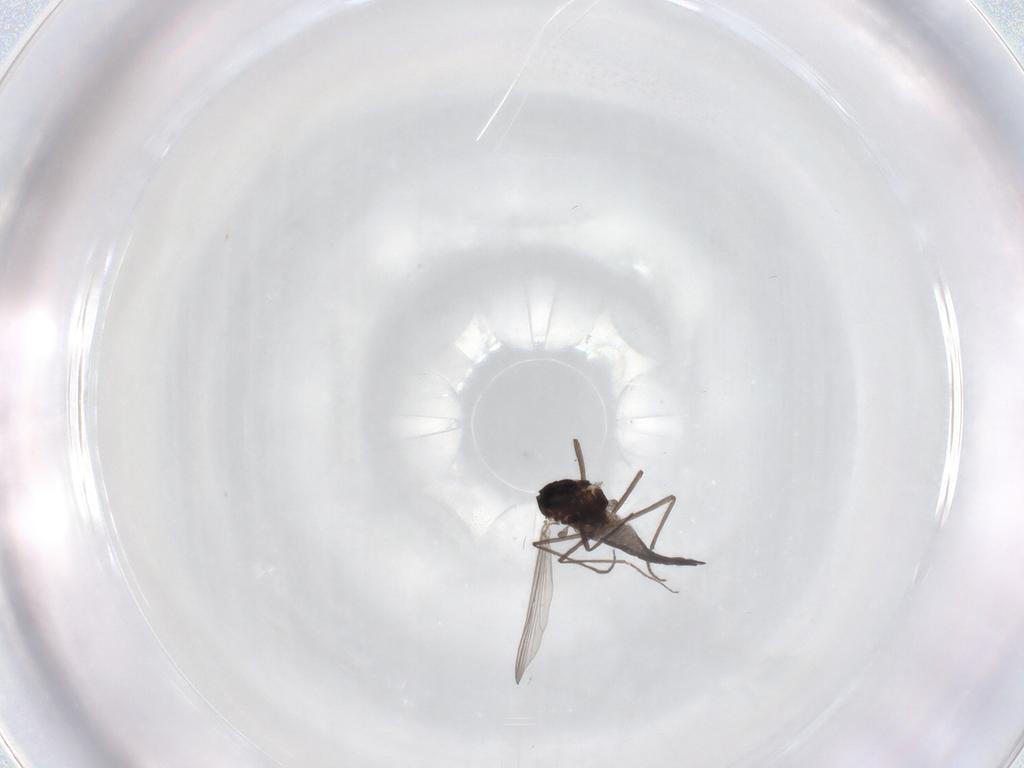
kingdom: Animalia
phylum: Arthropoda
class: Insecta
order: Diptera
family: Chironomidae
